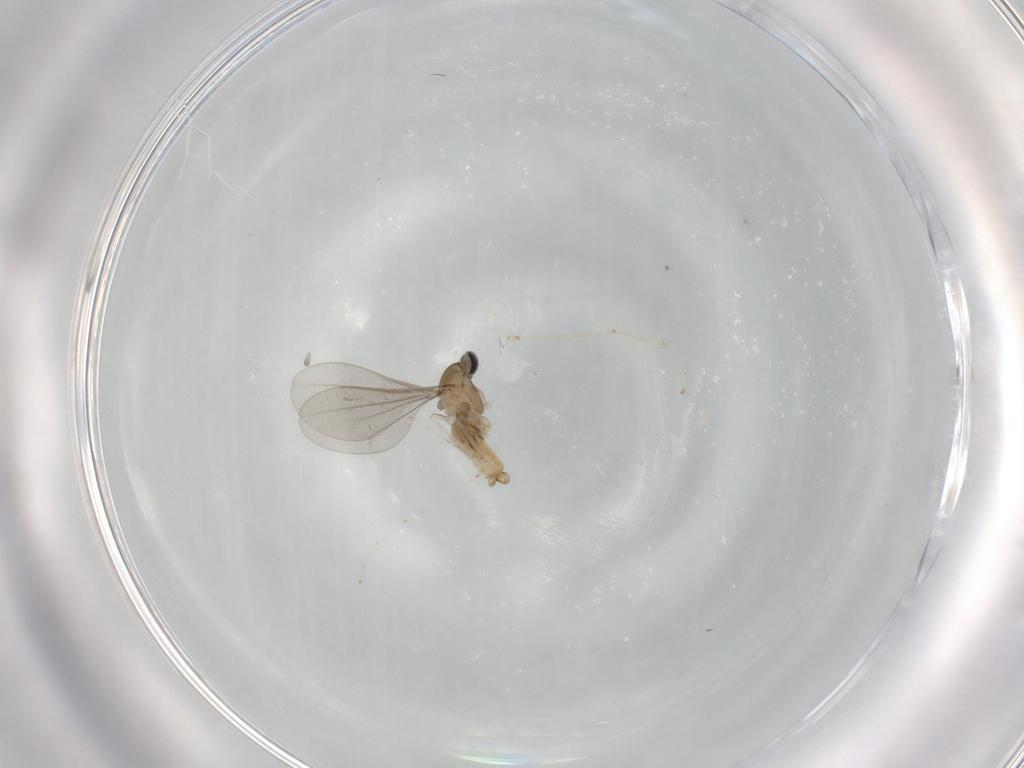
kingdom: Animalia
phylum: Arthropoda
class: Insecta
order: Diptera
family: Cecidomyiidae
